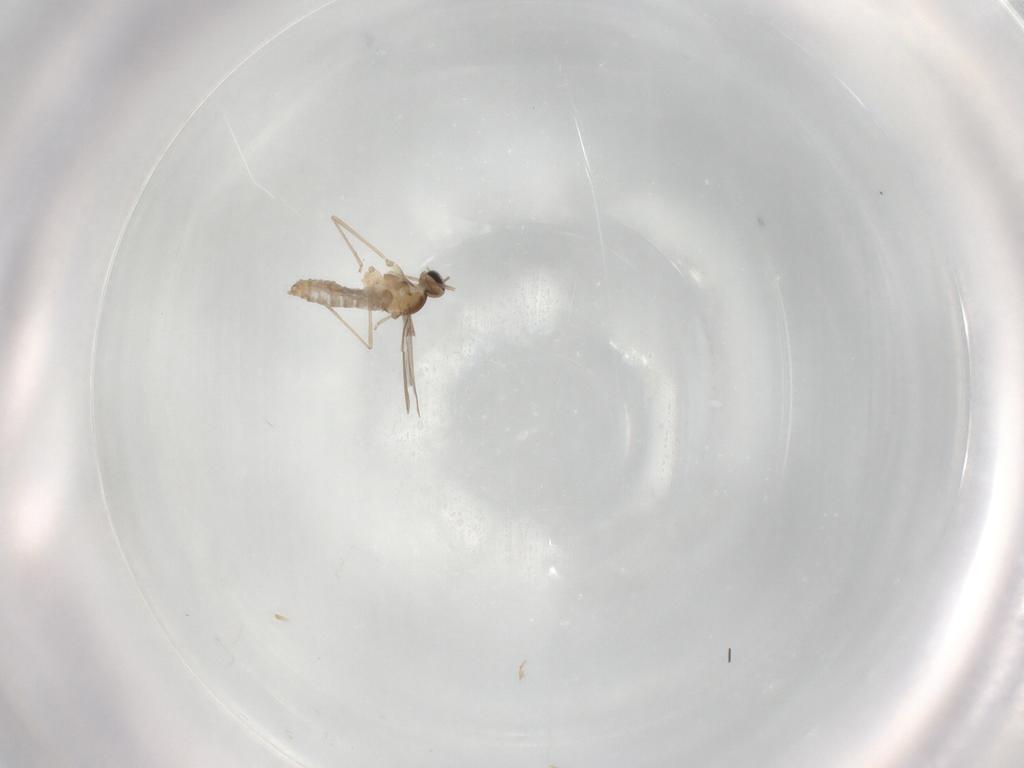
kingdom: Animalia
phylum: Arthropoda
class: Insecta
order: Diptera
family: Cecidomyiidae
